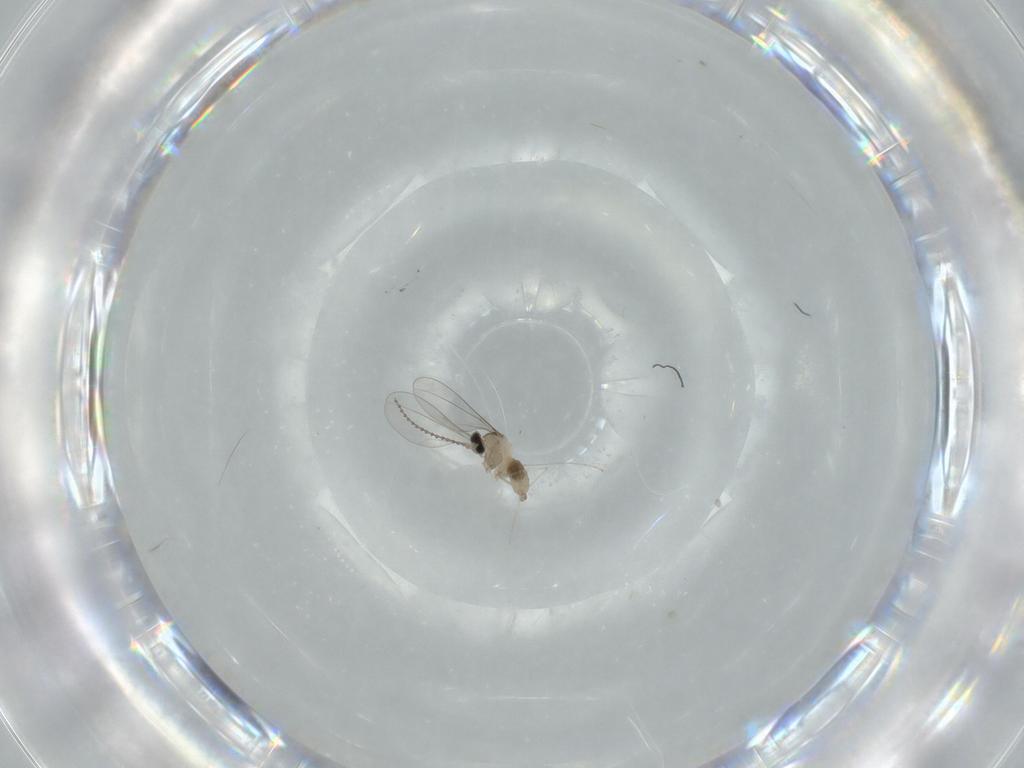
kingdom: Animalia
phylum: Arthropoda
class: Insecta
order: Diptera
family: Cecidomyiidae
